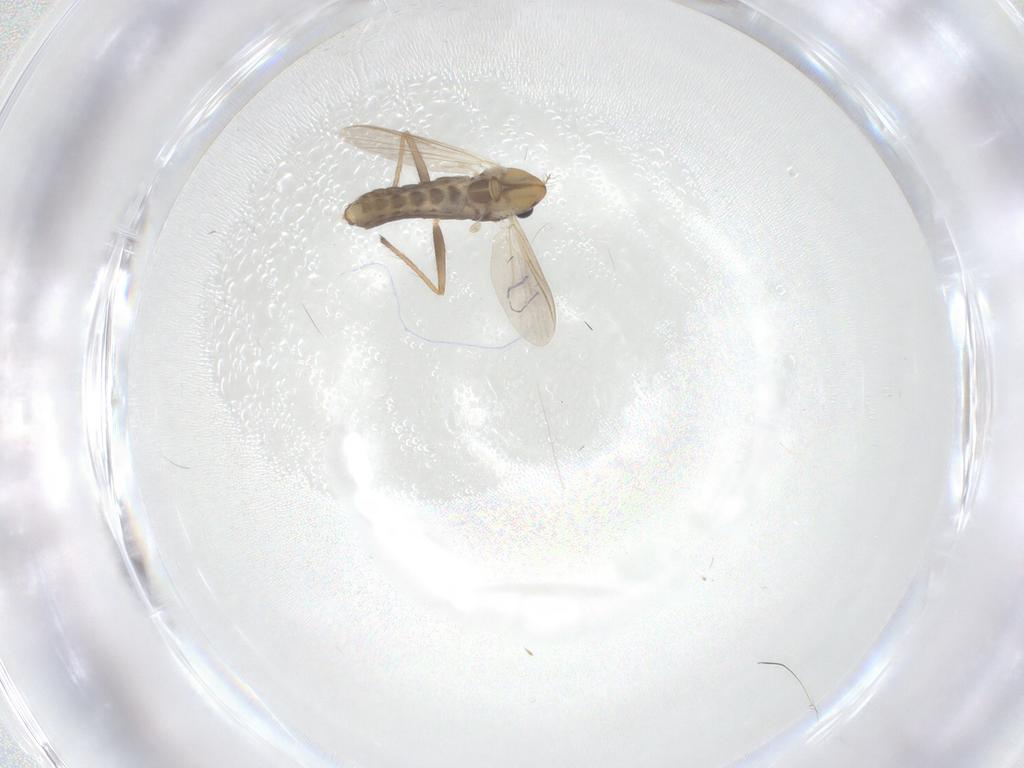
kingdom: Animalia
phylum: Arthropoda
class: Insecta
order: Diptera
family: Chironomidae
